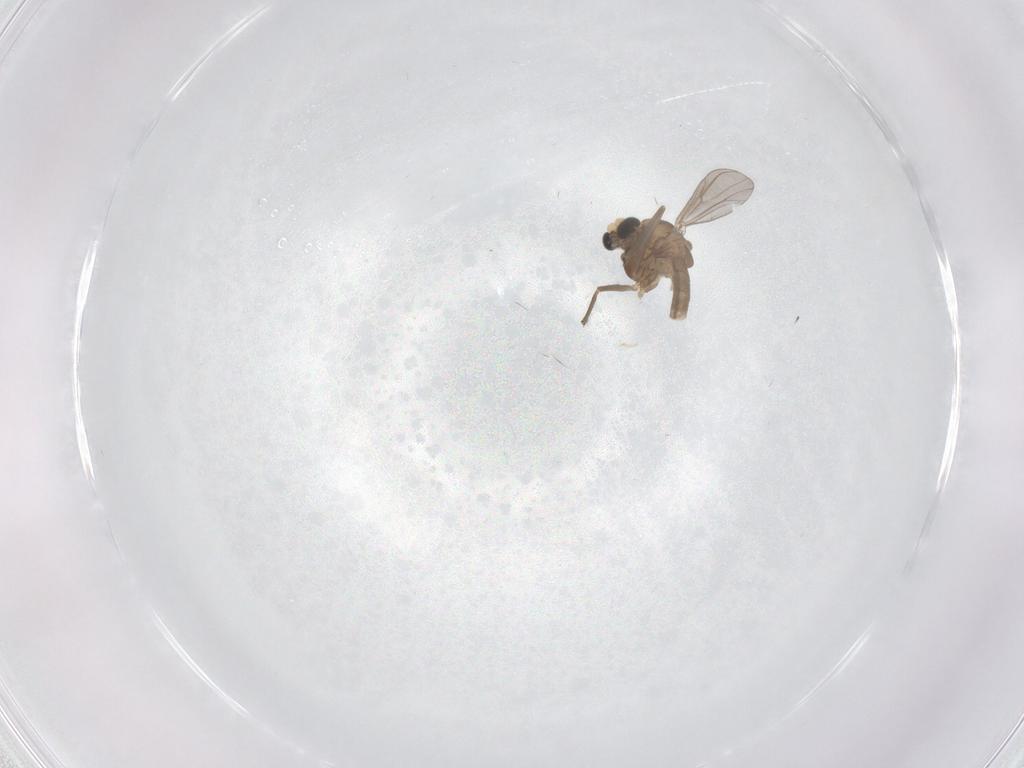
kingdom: Animalia
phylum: Arthropoda
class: Insecta
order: Diptera
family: Chironomidae
